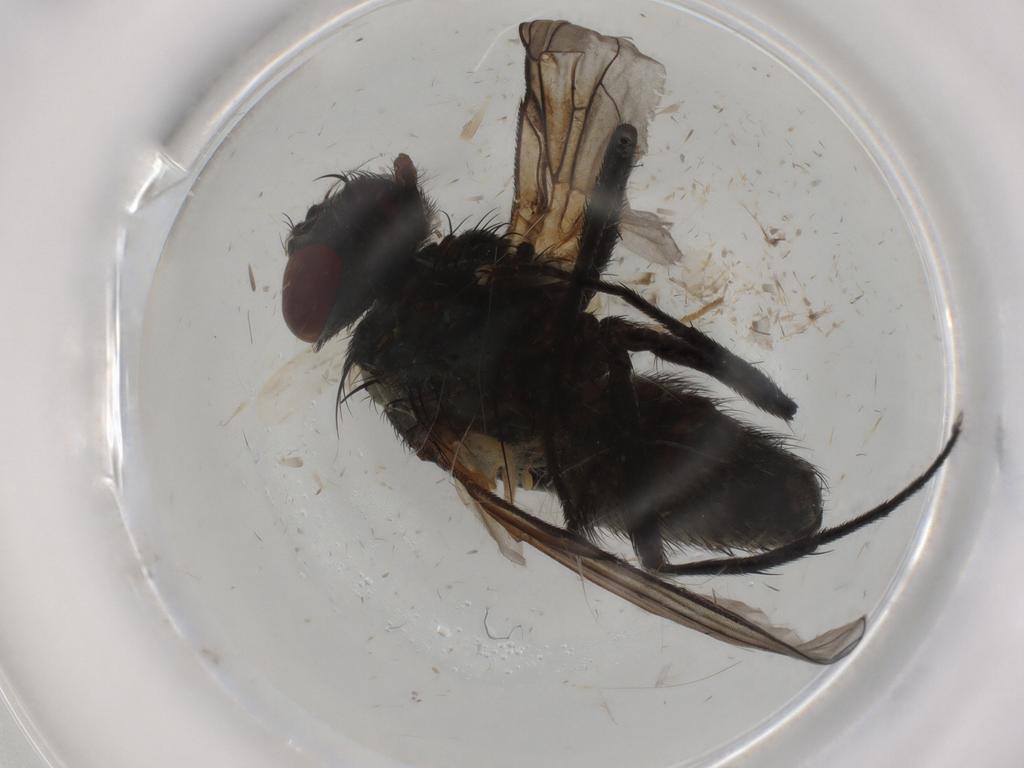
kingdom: Animalia
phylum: Arthropoda
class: Insecta
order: Diptera
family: Muscidae
